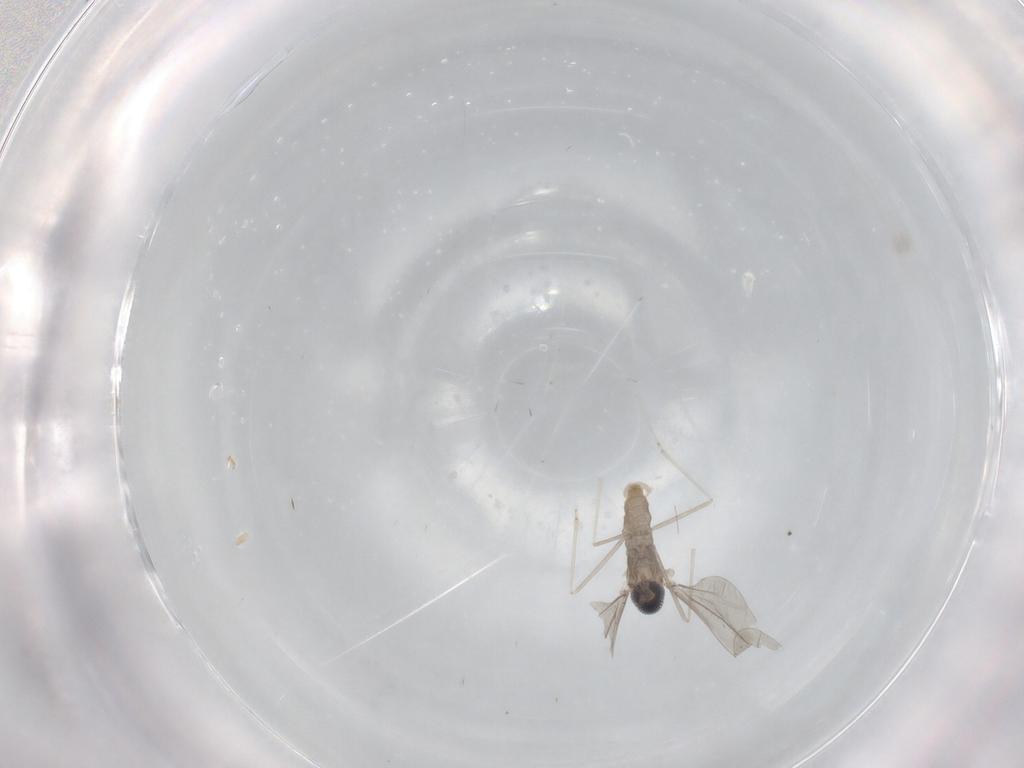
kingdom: Animalia
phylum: Arthropoda
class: Insecta
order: Diptera
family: Cecidomyiidae
